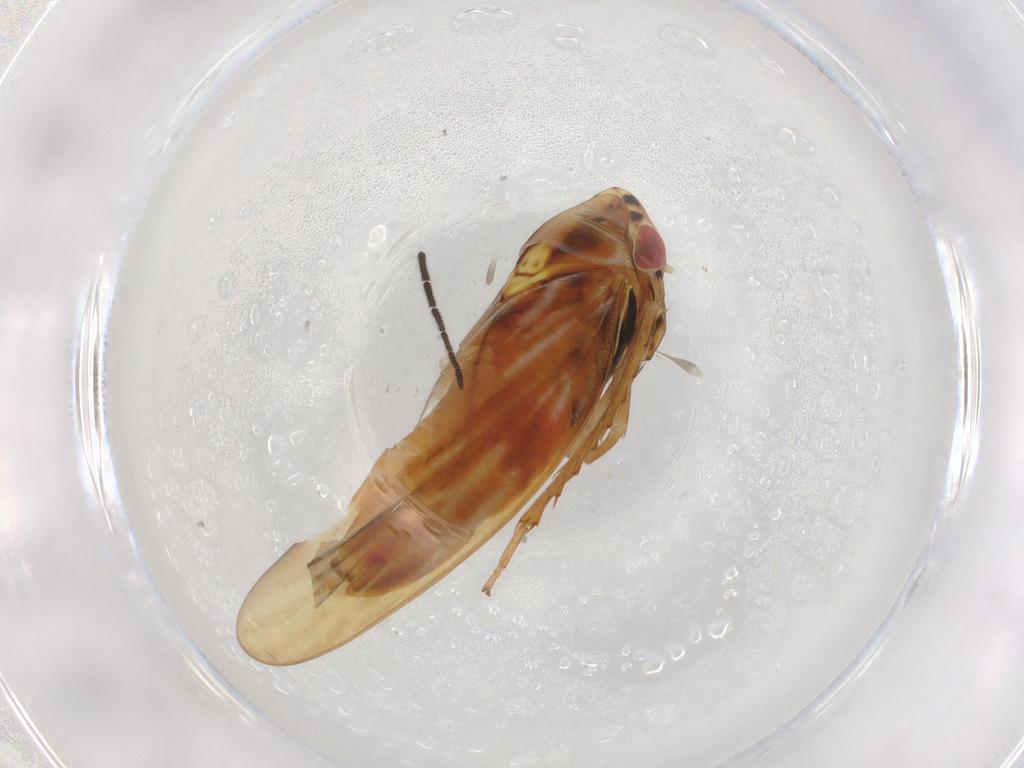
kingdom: Animalia
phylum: Arthropoda
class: Insecta
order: Hemiptera
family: Cicadellidae
